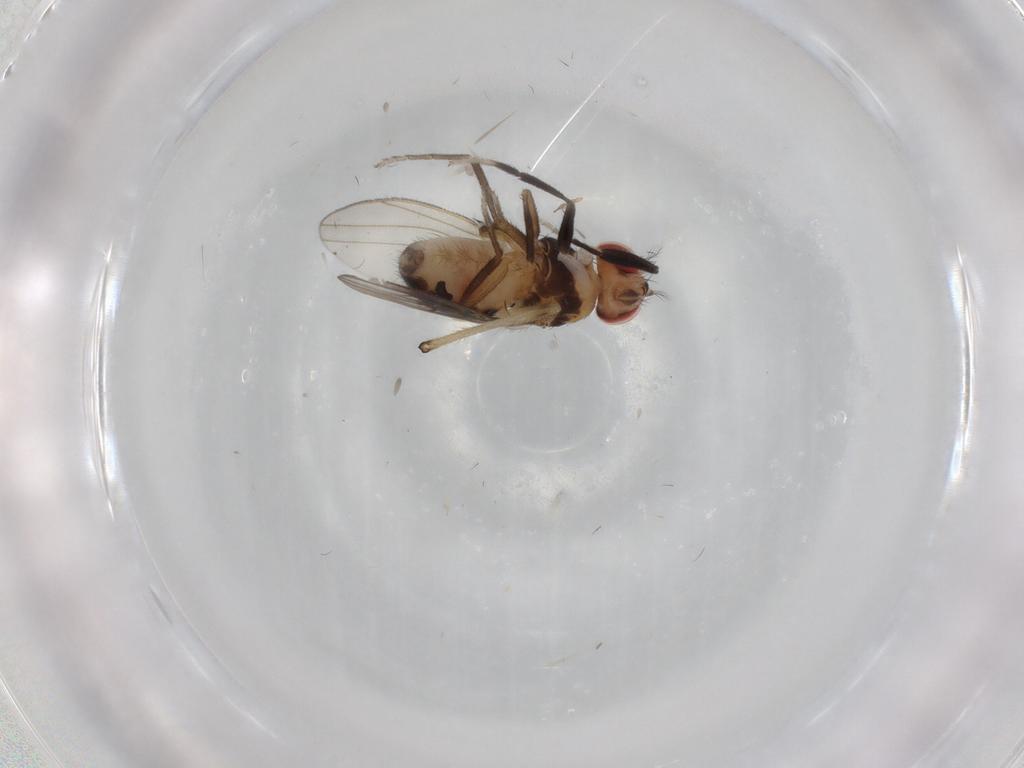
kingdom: Animalia
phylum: Arthropoda
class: Insecta
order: Diptera
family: Drosophilidae
